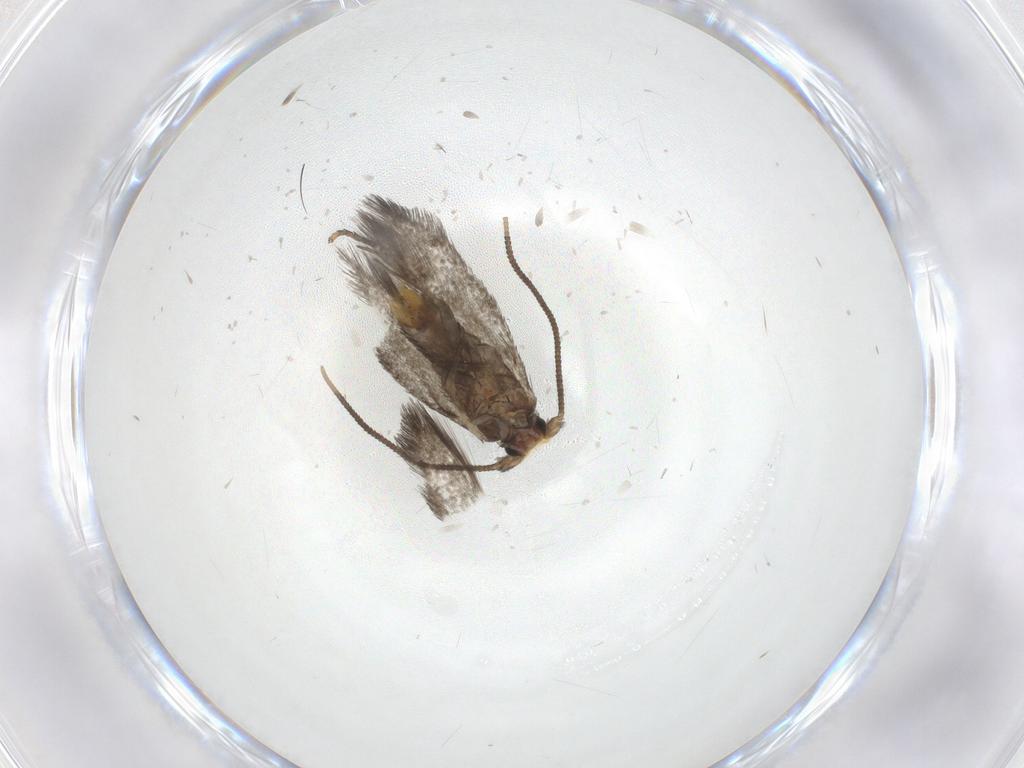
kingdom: Animalia
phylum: Arthropoda
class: Insecta
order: Lepidoptera
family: Nepticulidae
